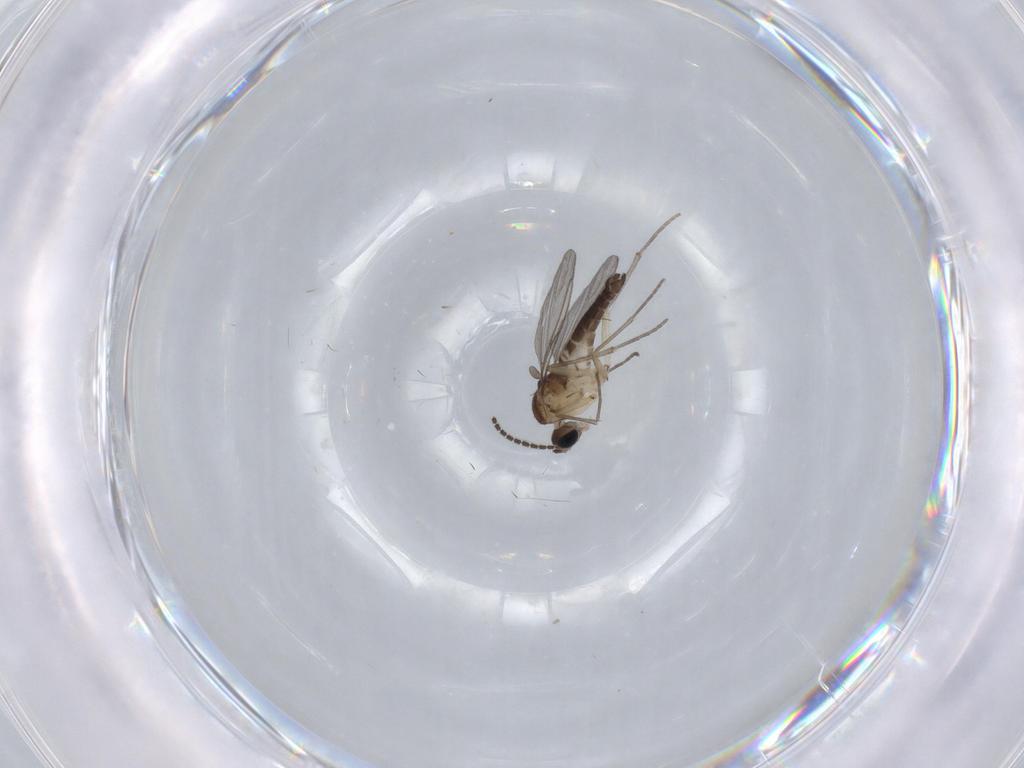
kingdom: Animalia
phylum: Arthropoda
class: Insecta
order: Diptera
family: Sciaridae
